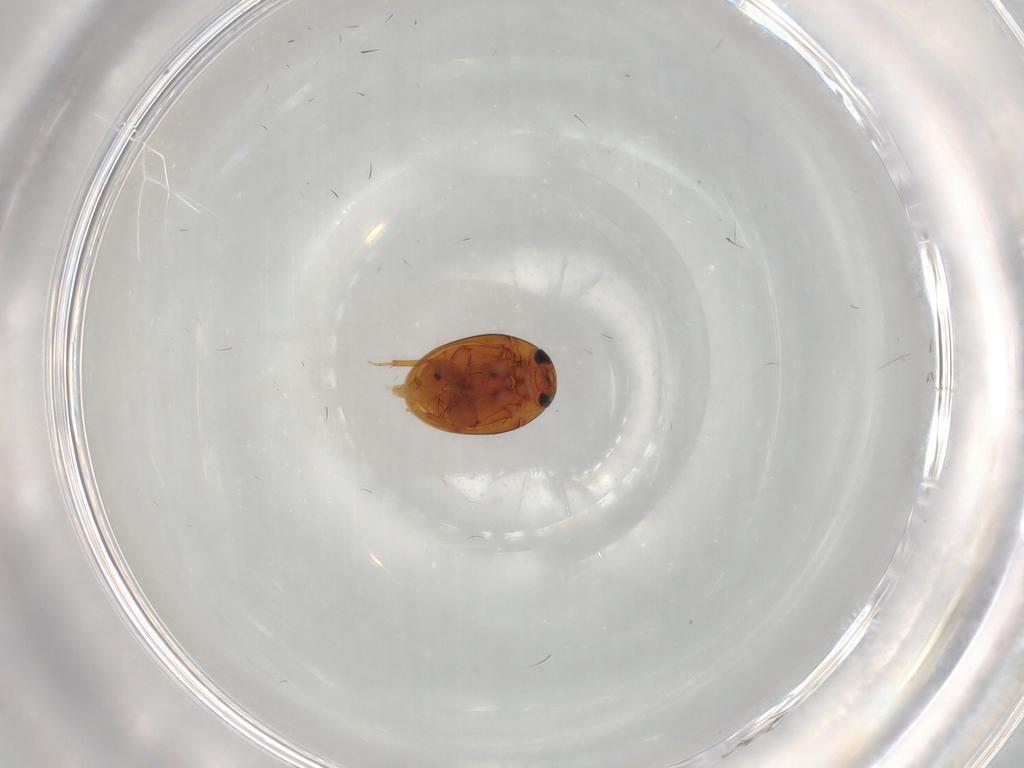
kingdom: Animalia
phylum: Arthropoda
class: Insecta
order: Coleoptera
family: Phalacridae
